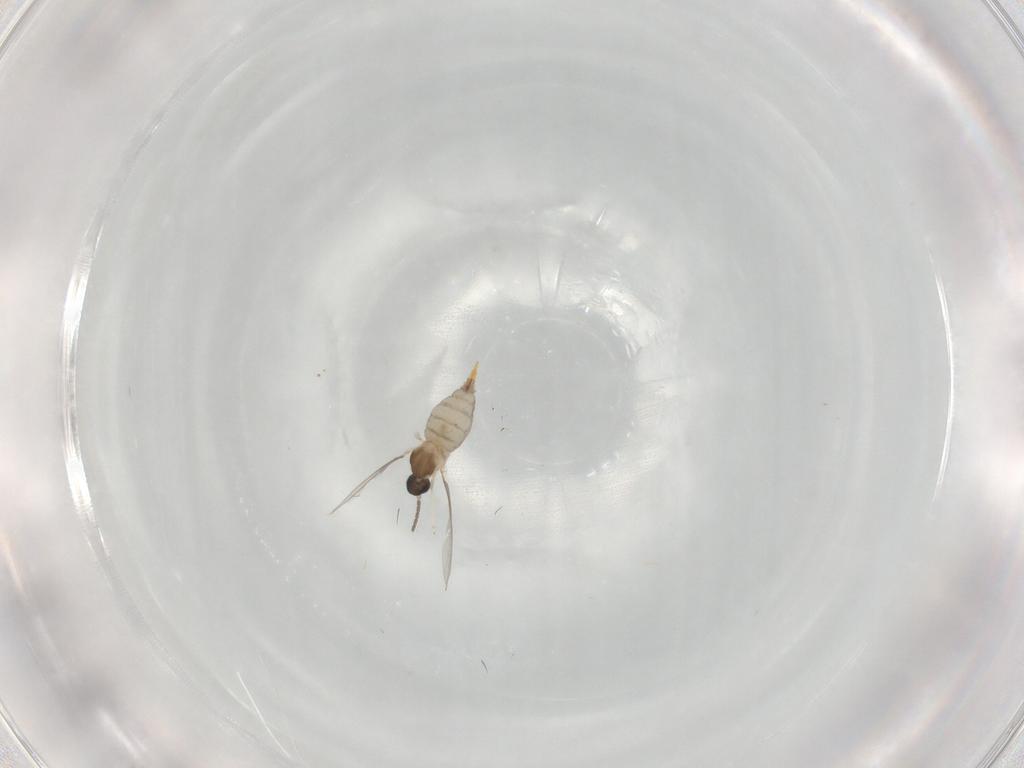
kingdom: Animalia
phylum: Arthropoda
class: Insecta
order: Diptera
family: Cecidomyiidae
